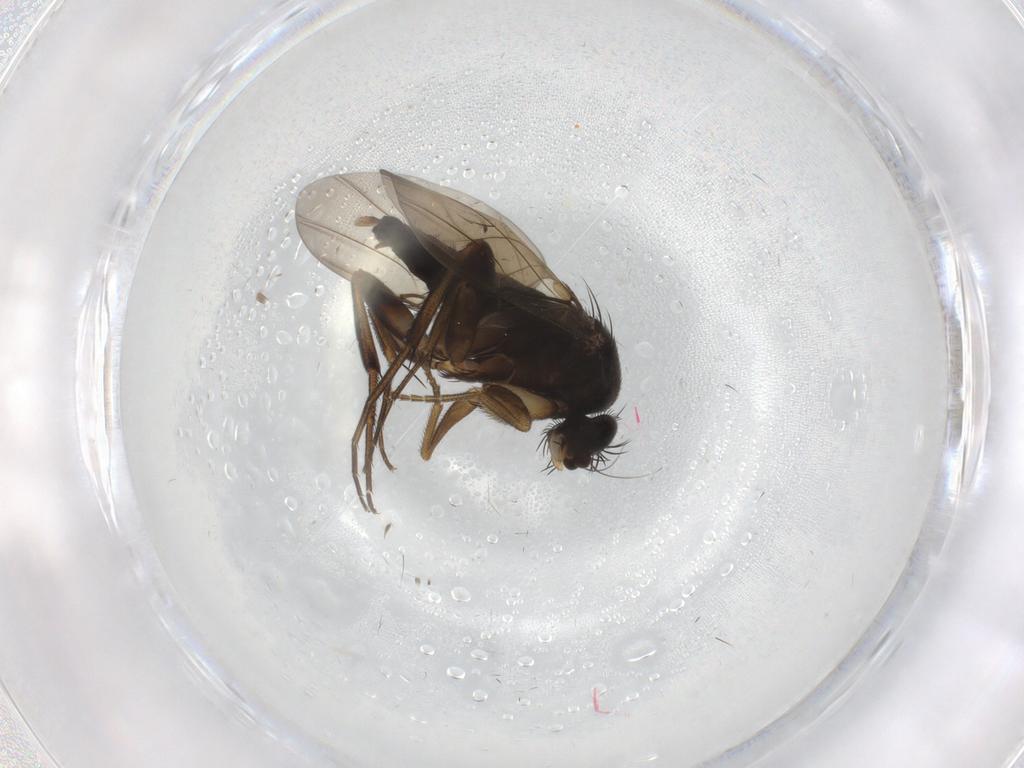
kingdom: Animalia
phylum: Arthropoda
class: Insecta
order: Diptera
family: Phoridae
